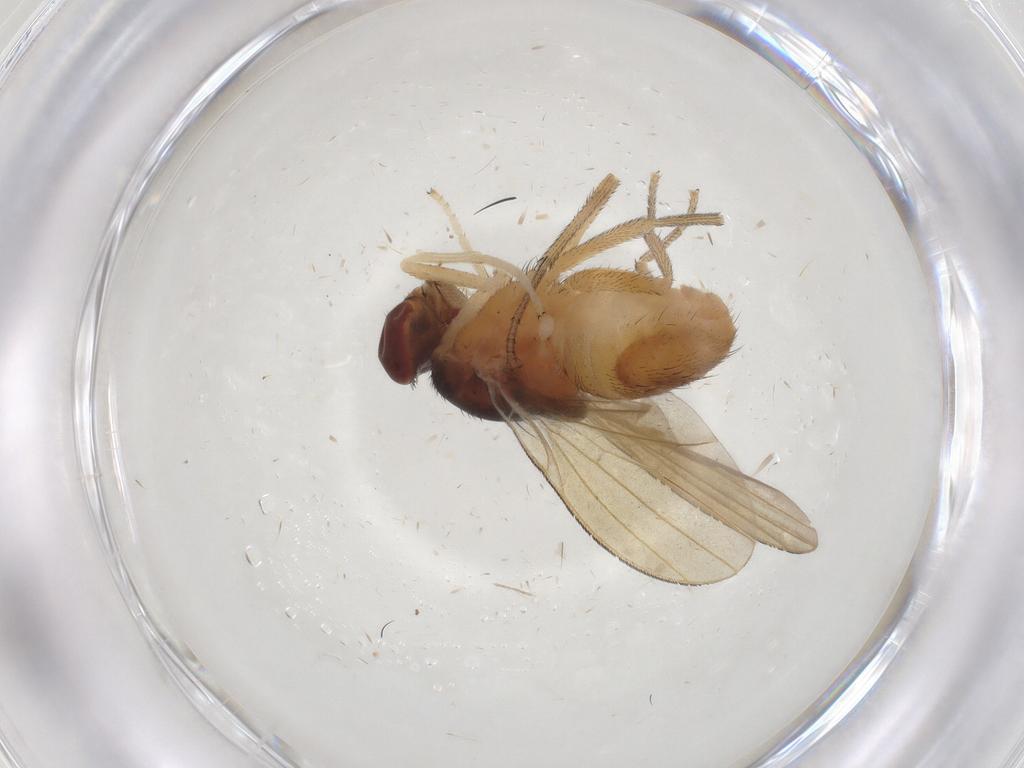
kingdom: Animalia
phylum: Arthropoda
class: Insecta
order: Diptera
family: Lauxaniidae
